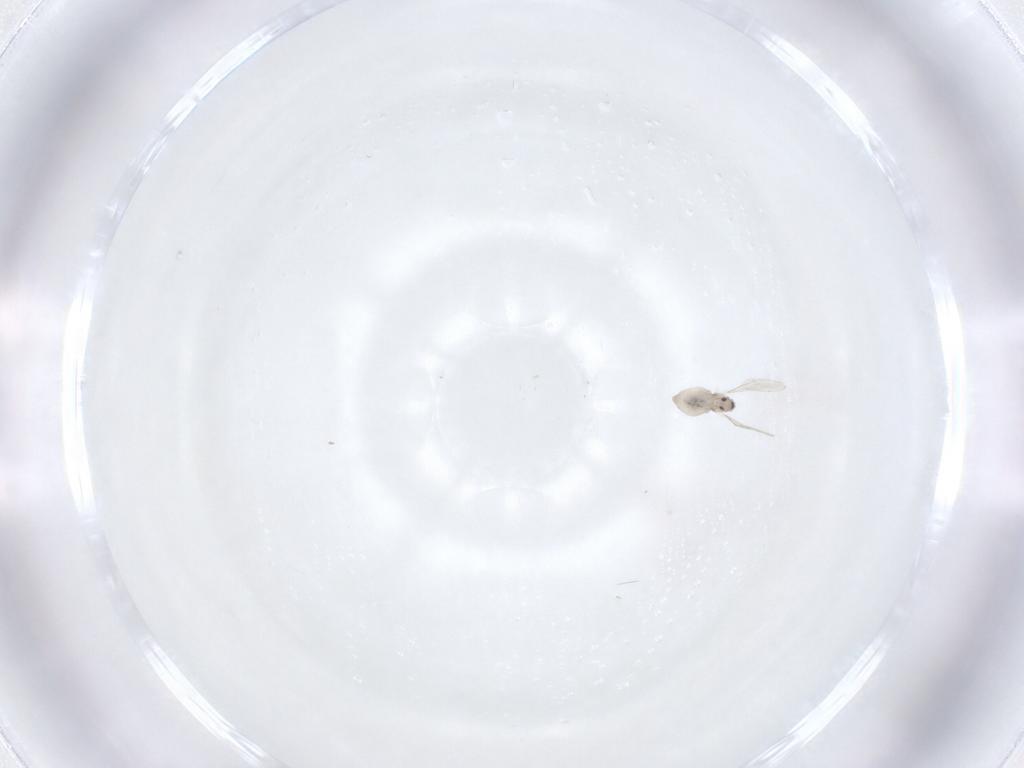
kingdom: Animalia
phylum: Arthropoda
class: Insecta
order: Diptera
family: Cecidomyiidae
